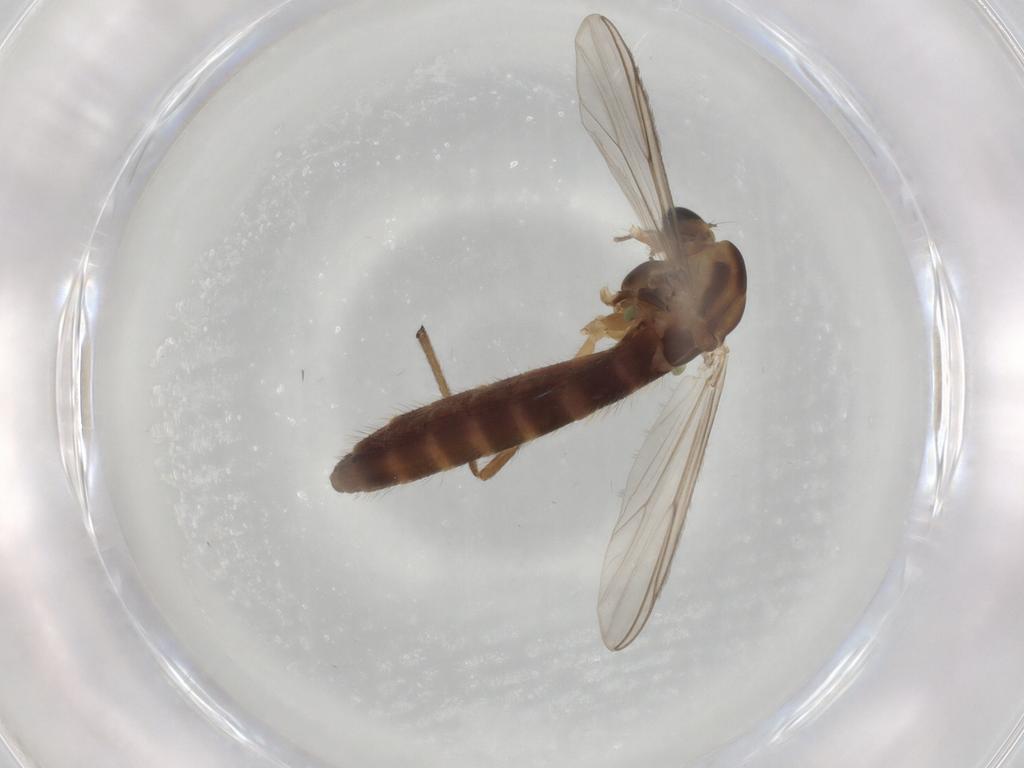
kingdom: Animalia
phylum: Arthropoda
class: Insecta
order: Diptera
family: Chironomidae
